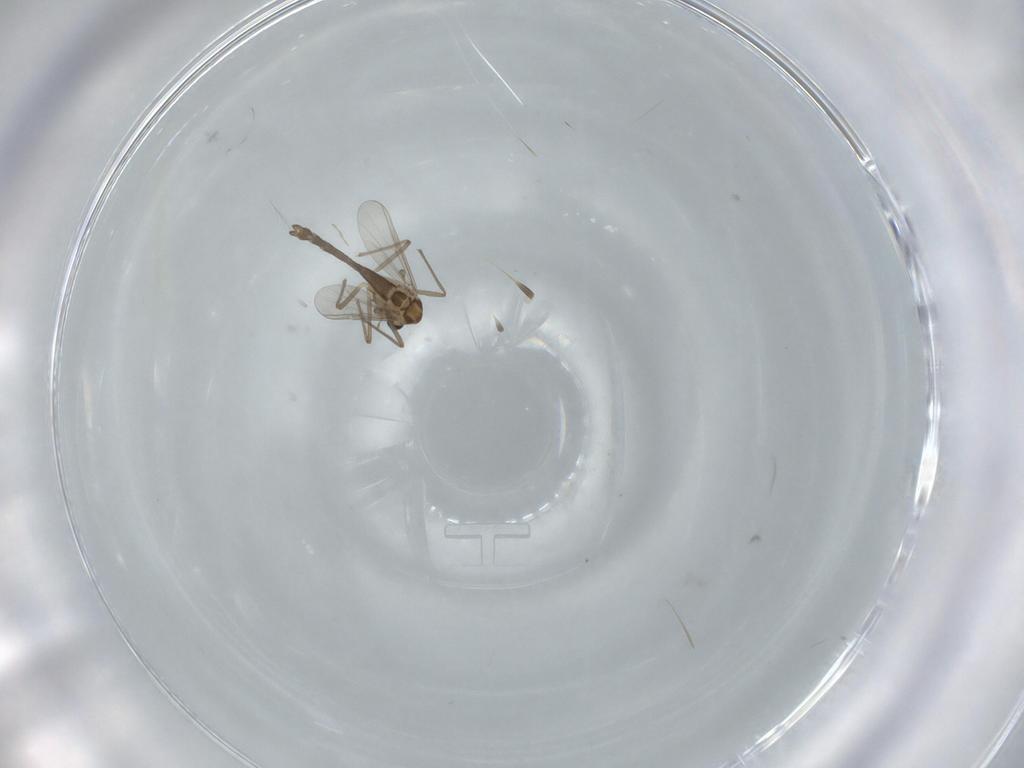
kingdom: Animalia
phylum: Arthropoda
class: Insecta
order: Diptera
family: Chironomidae
